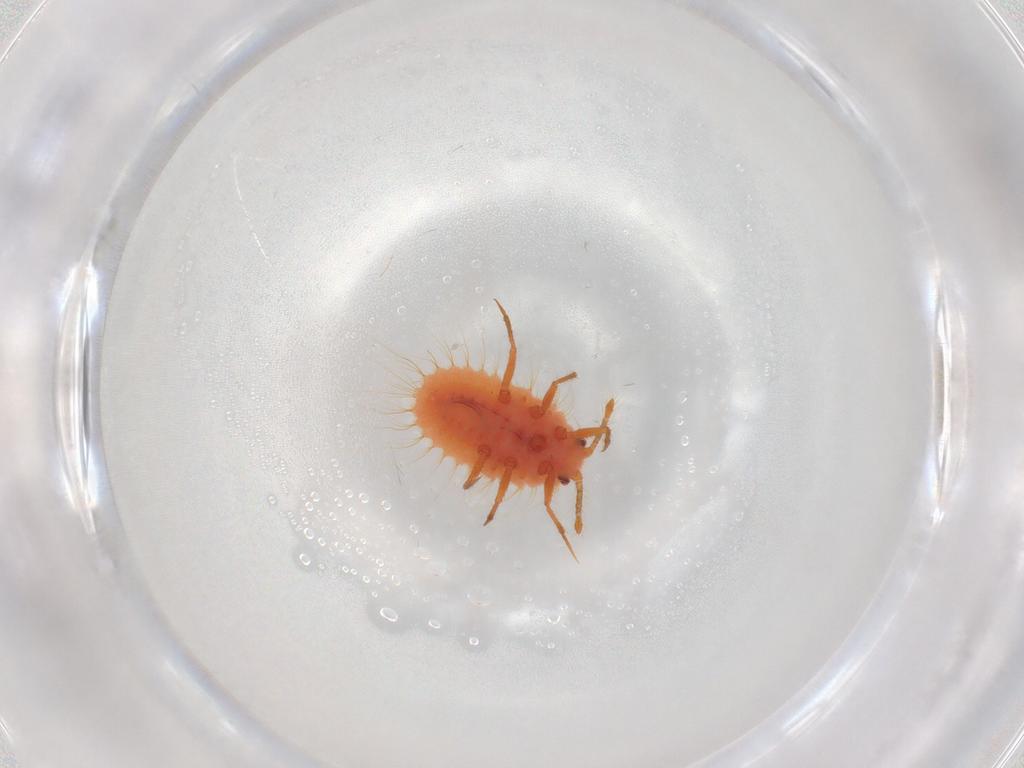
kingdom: Animalia
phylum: Arthropoda
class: Insecta
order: Hemiptera
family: Coccoidea_incertae_sedis
